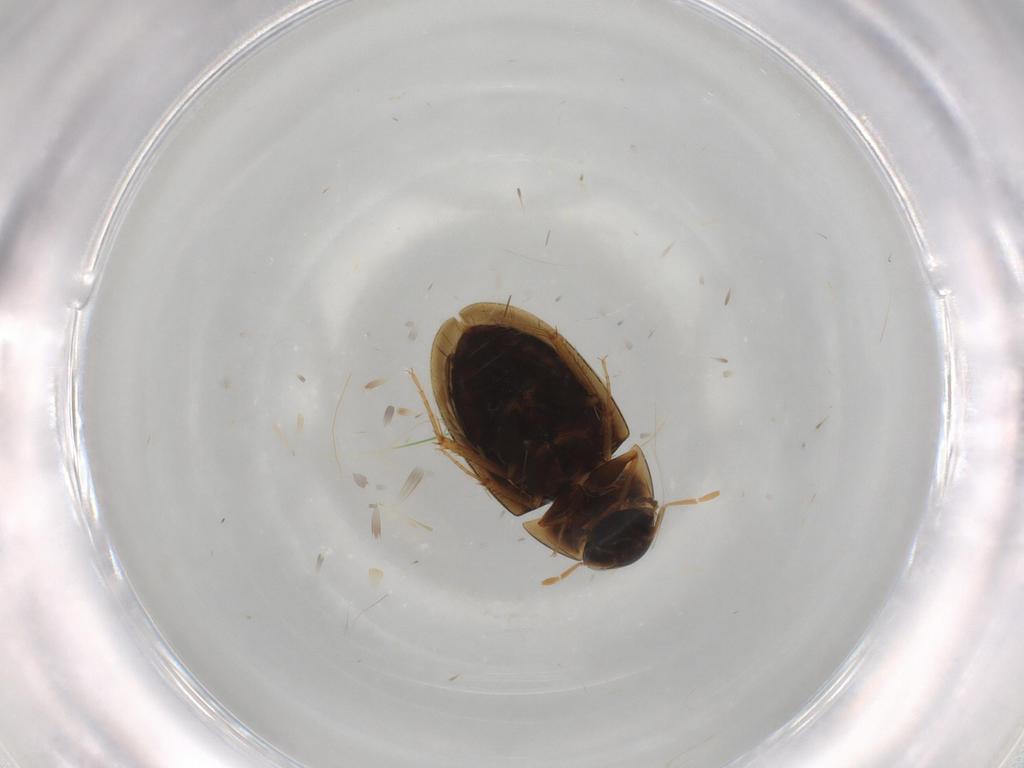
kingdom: Animalia
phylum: Arthropoda
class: Insecta
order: Coleoptera
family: Hydrophilidae
